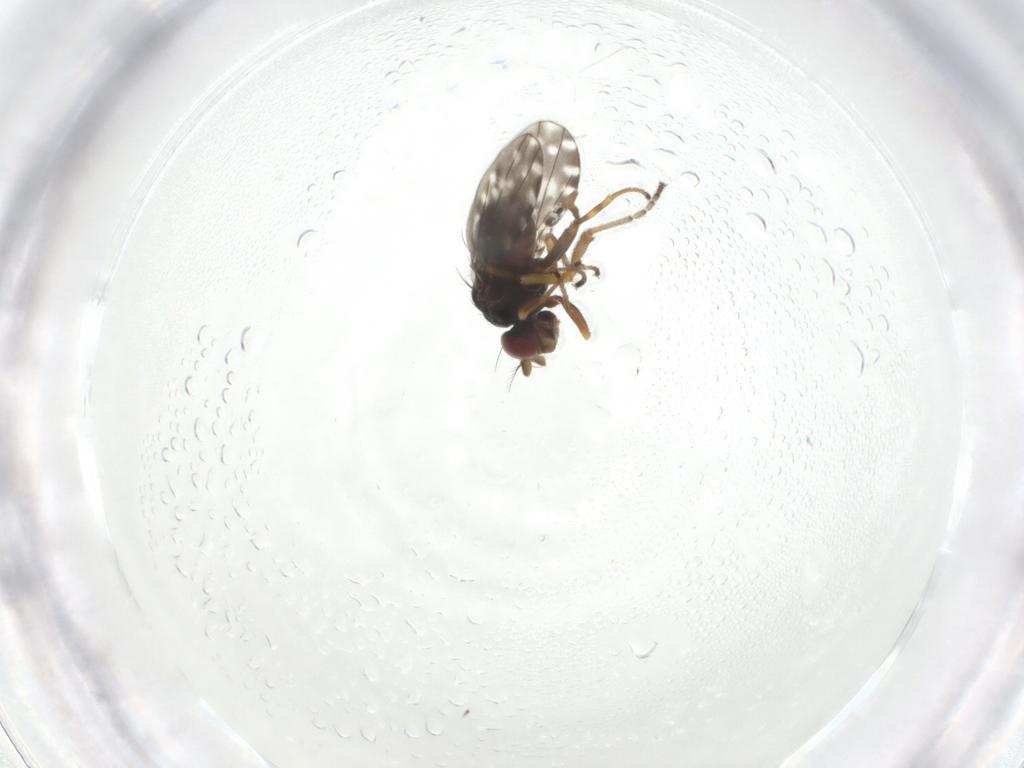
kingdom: Animalia
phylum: Arthropoda
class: Insecta
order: Diptera
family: Ephydridae
